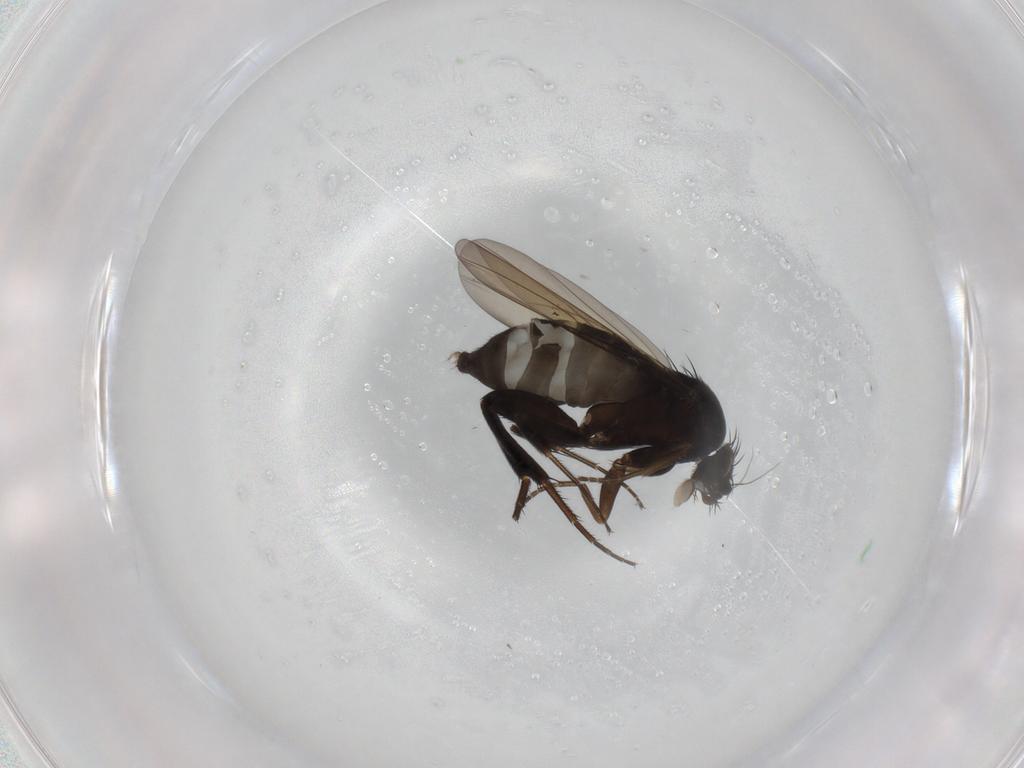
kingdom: Animalia
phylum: Arthropoda
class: Insecta
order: Diptera
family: Phoridae
